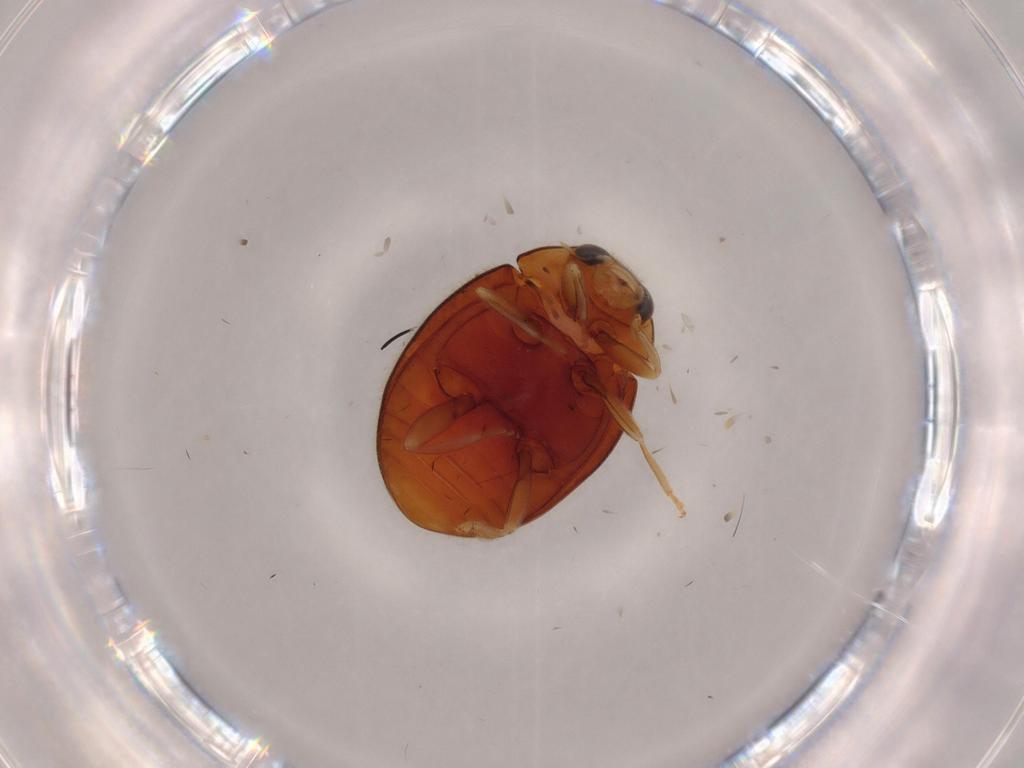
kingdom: Animalia
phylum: Arthropoda
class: Insecta
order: Coleoptera
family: Coccinellidae
